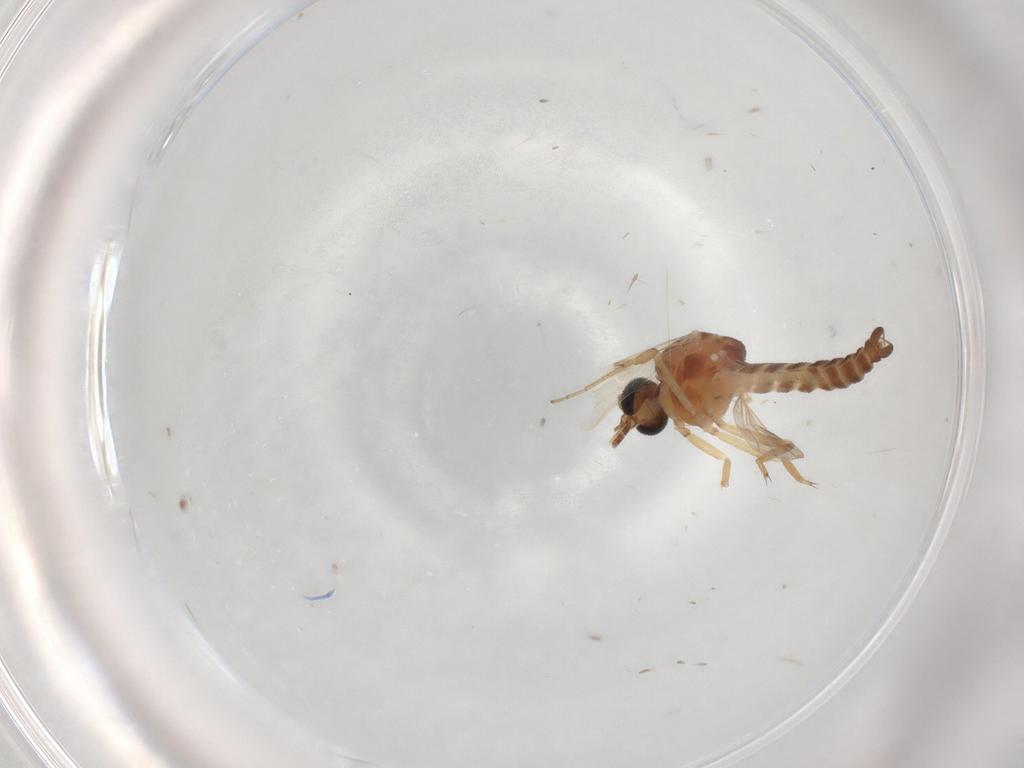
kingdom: Animalia
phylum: Arthropoda
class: Insecta
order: Diptera
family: Ceratopogonidae
